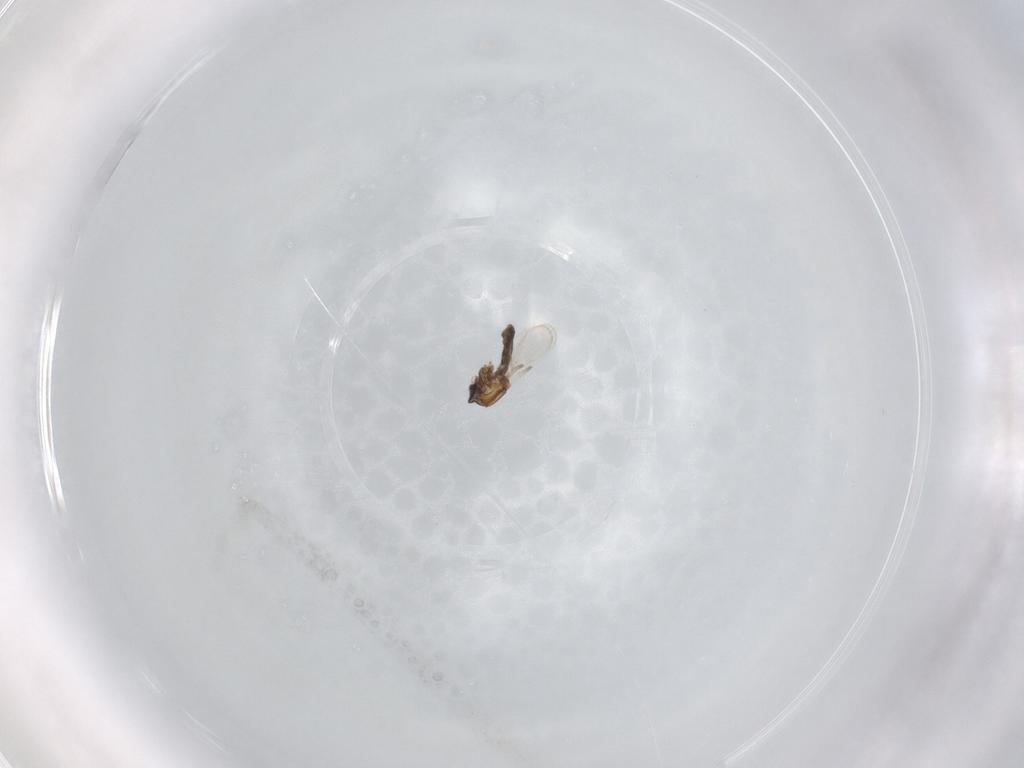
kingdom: Animalia
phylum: Arthropoda
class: Insecta
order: Diptera
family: Ceratopogonidae
